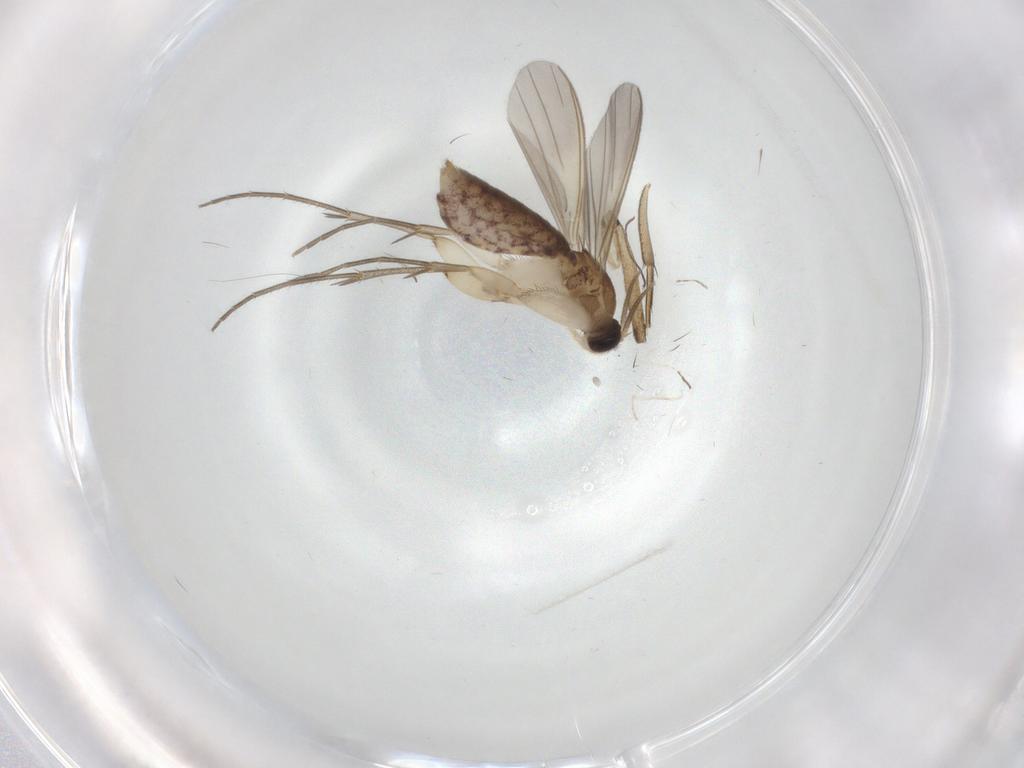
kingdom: Animalia
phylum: Arthropoda
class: Insecta
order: Diptera
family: Mycetophilidae
